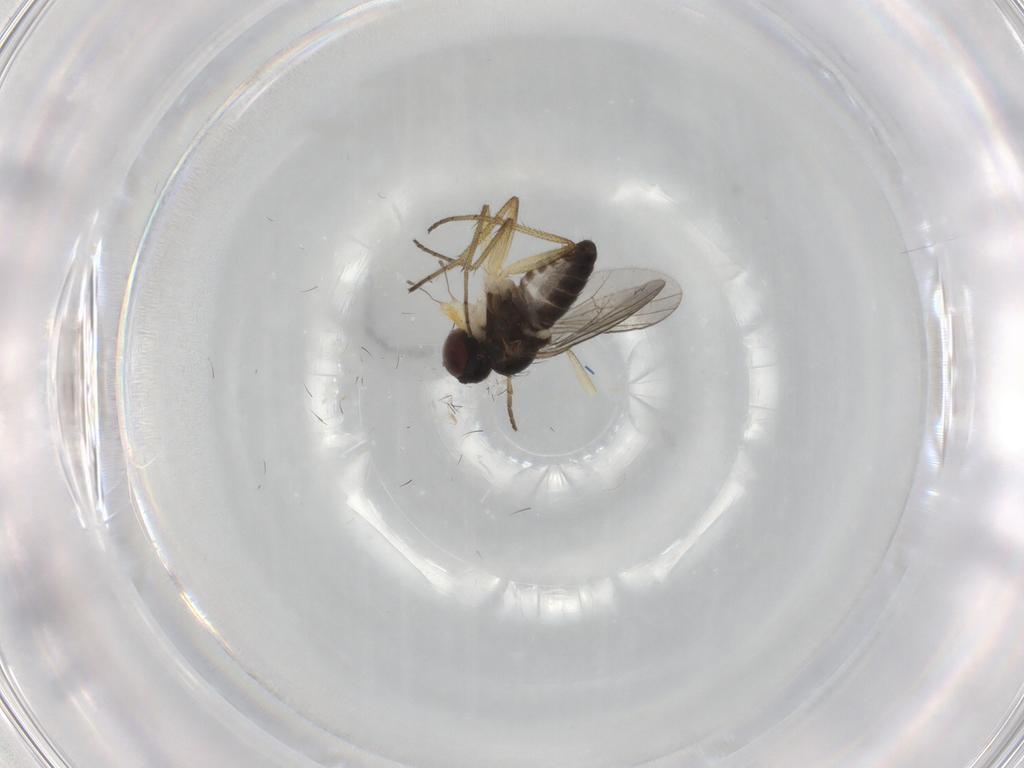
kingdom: Animalia
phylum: Arthropoda
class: Insecta
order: Diptera
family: Dolichopodidae
